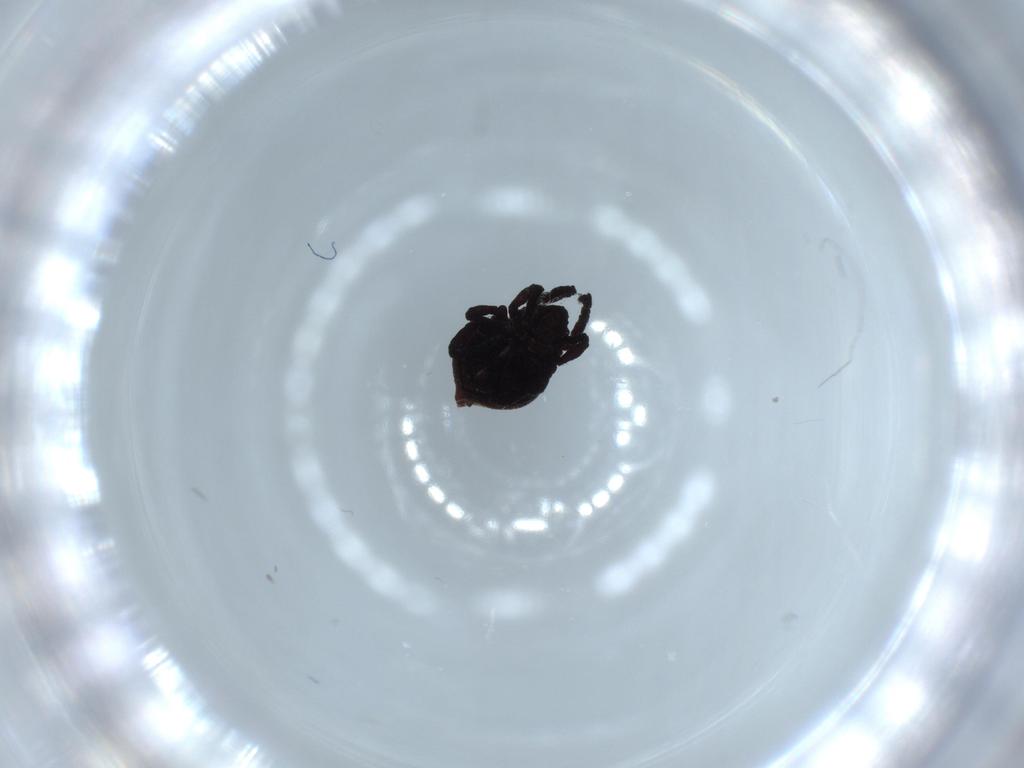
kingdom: Animalia
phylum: Arthropoda
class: Arachnida
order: Sarcoptiformes
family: Neoliodidae
